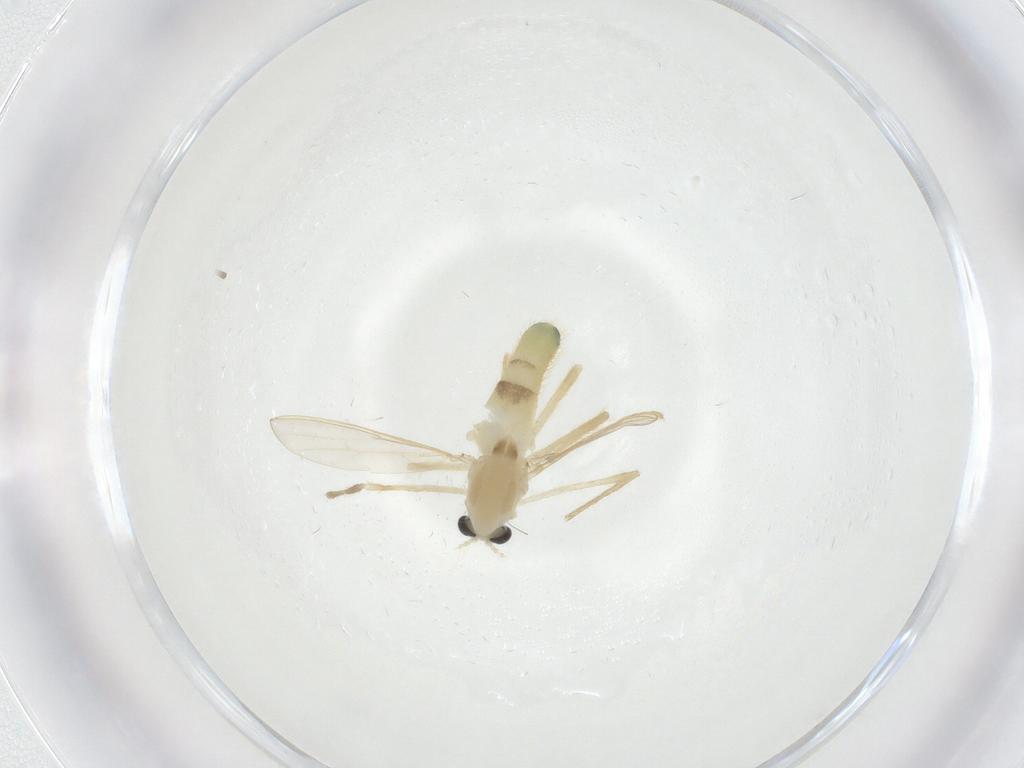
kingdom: Animalia
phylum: Arthropoda
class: Insecta
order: Diptera
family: Chironomidae
